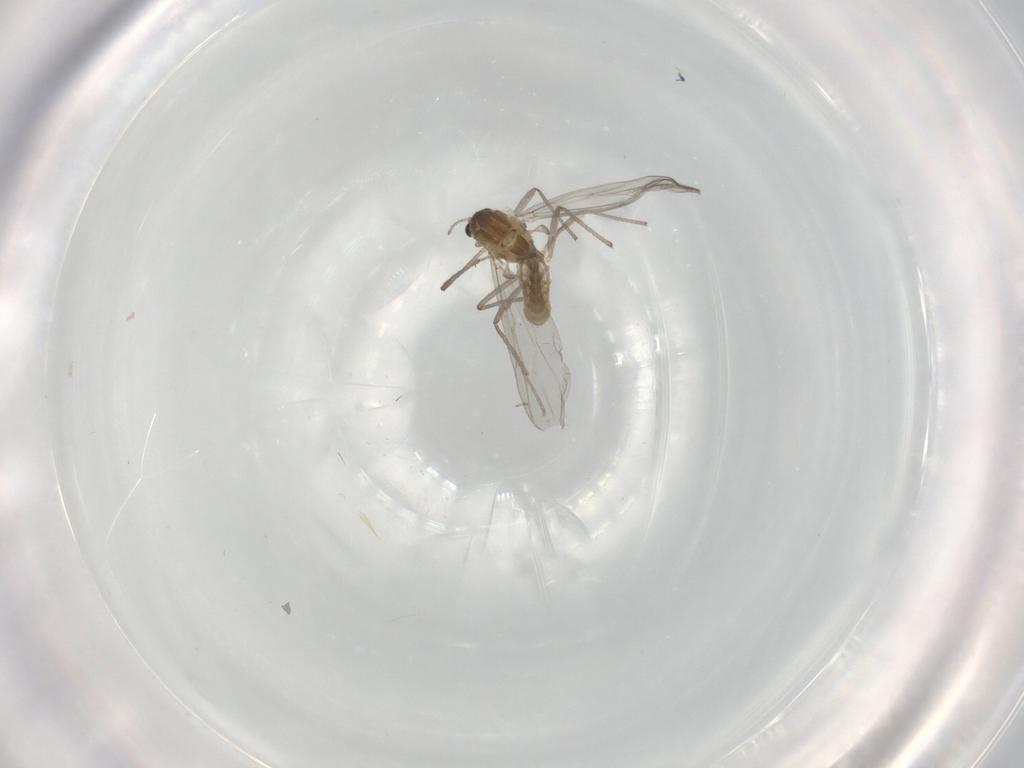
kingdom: Animalia
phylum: Arthropoda
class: Insecta
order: Diptera
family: Chironomidae
